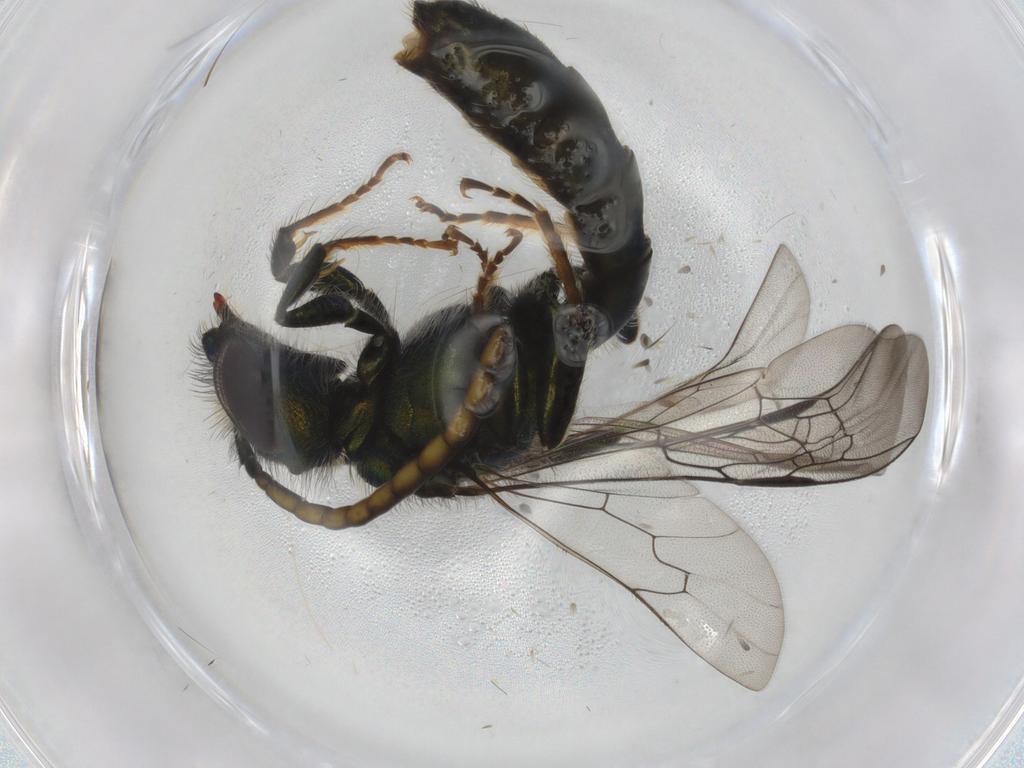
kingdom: Animalia
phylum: Arthropoda
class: Insecta
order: Hymenoptera
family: Halictidae
